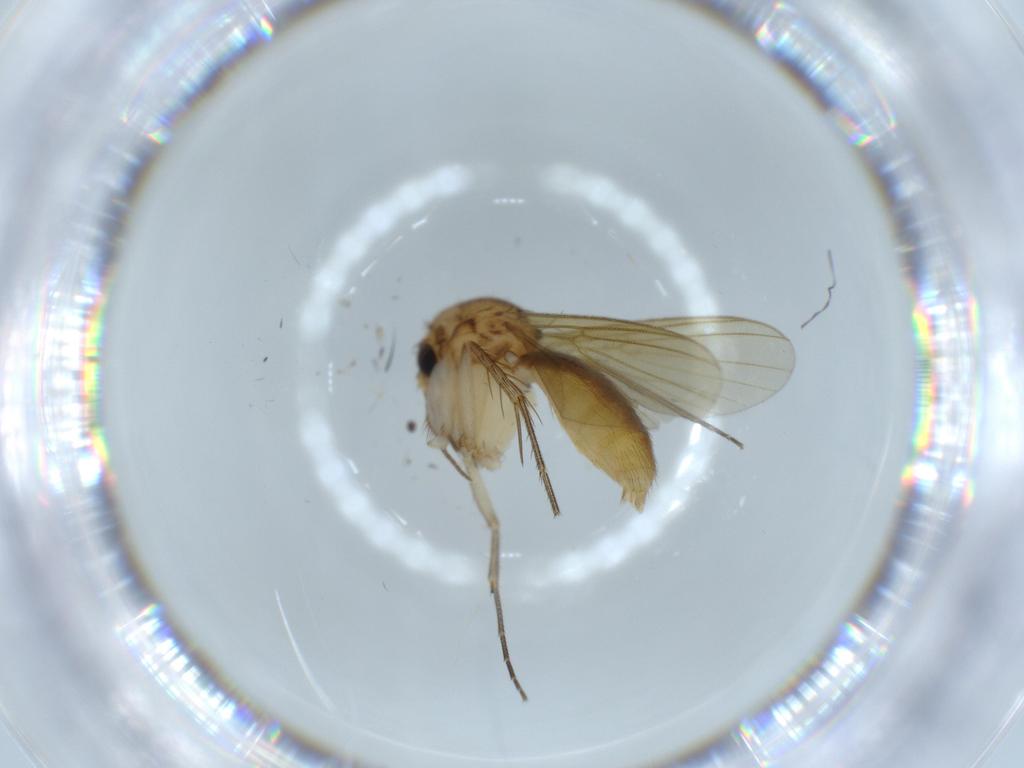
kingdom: Animalia
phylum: Arthropoda
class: Insecta
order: Diptera
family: Mycetophilidae
